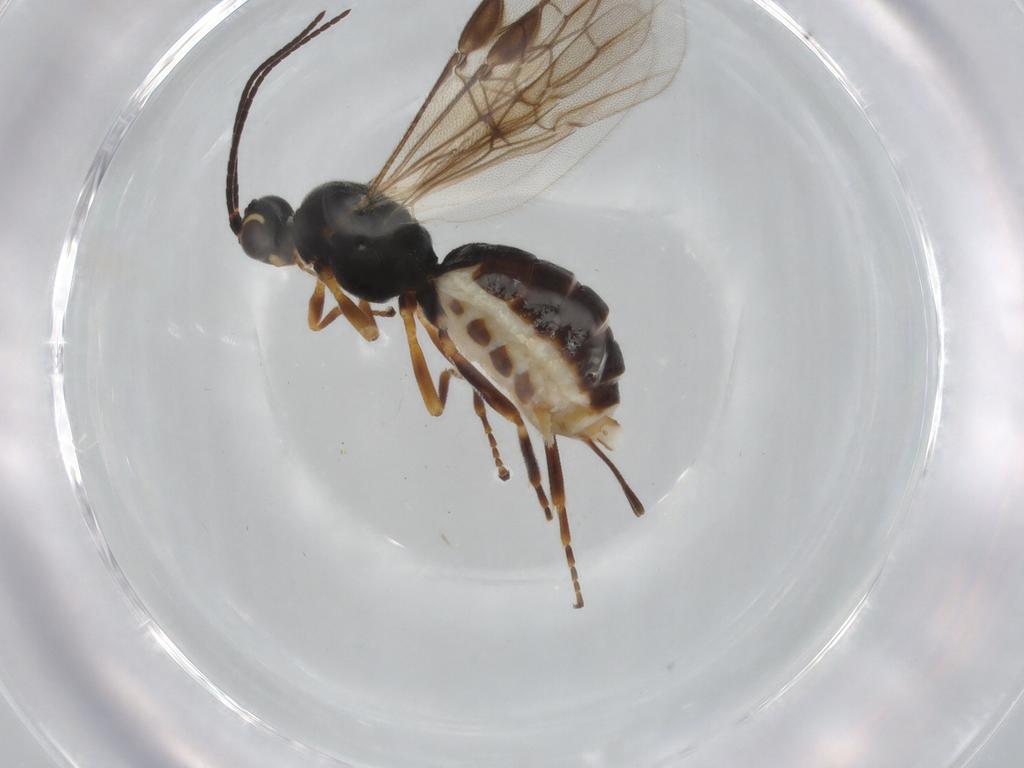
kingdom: Animalia
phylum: Arthropoda
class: Insecta
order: Hymenoptera
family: Braconidae
